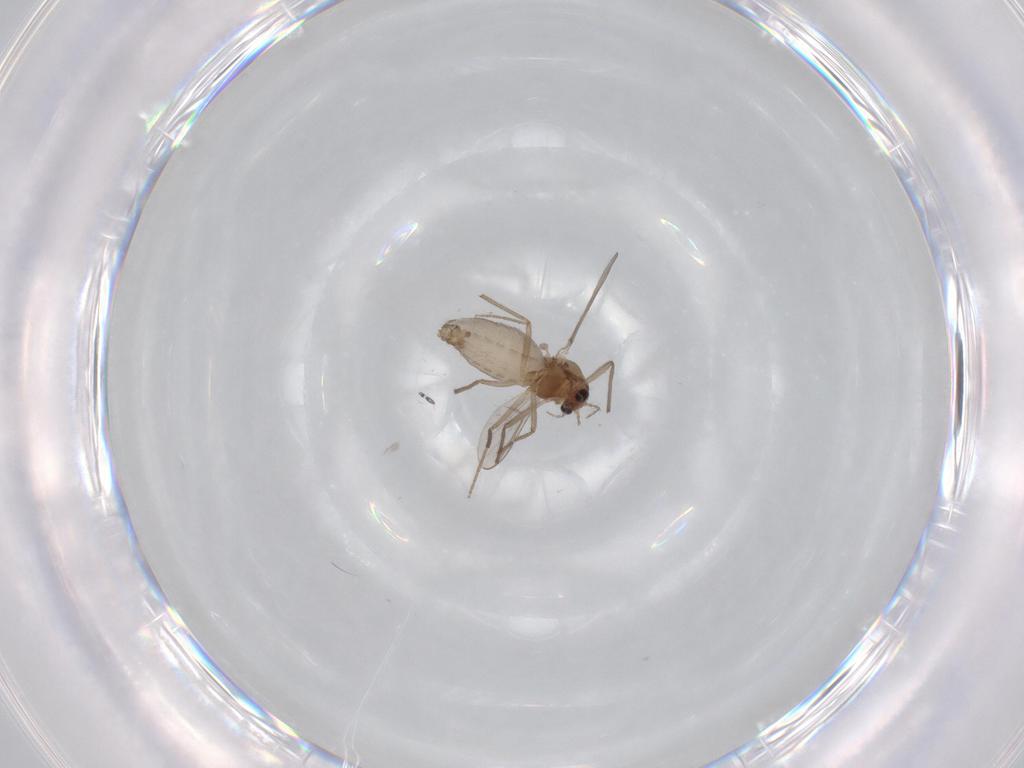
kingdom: Animalia
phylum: Arthropoda
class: Insecta
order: Diptera
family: Chironomidae
